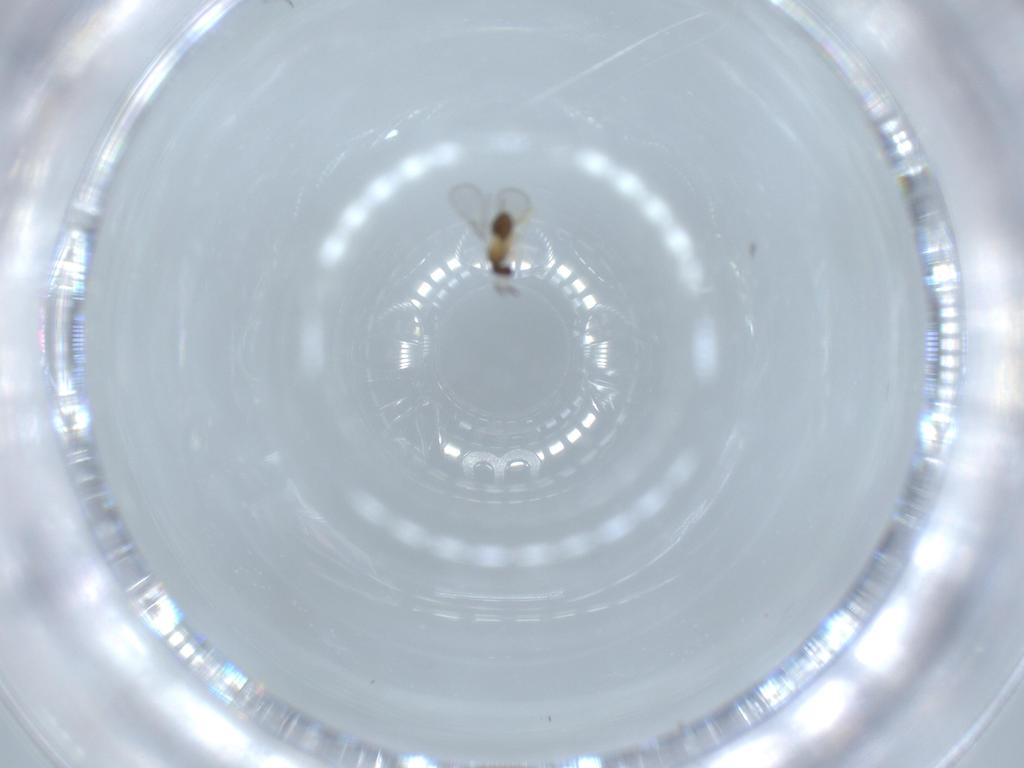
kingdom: Animalia
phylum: Arthropoda
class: Insecta
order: Hymenoptera
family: Trichogrammatidae
